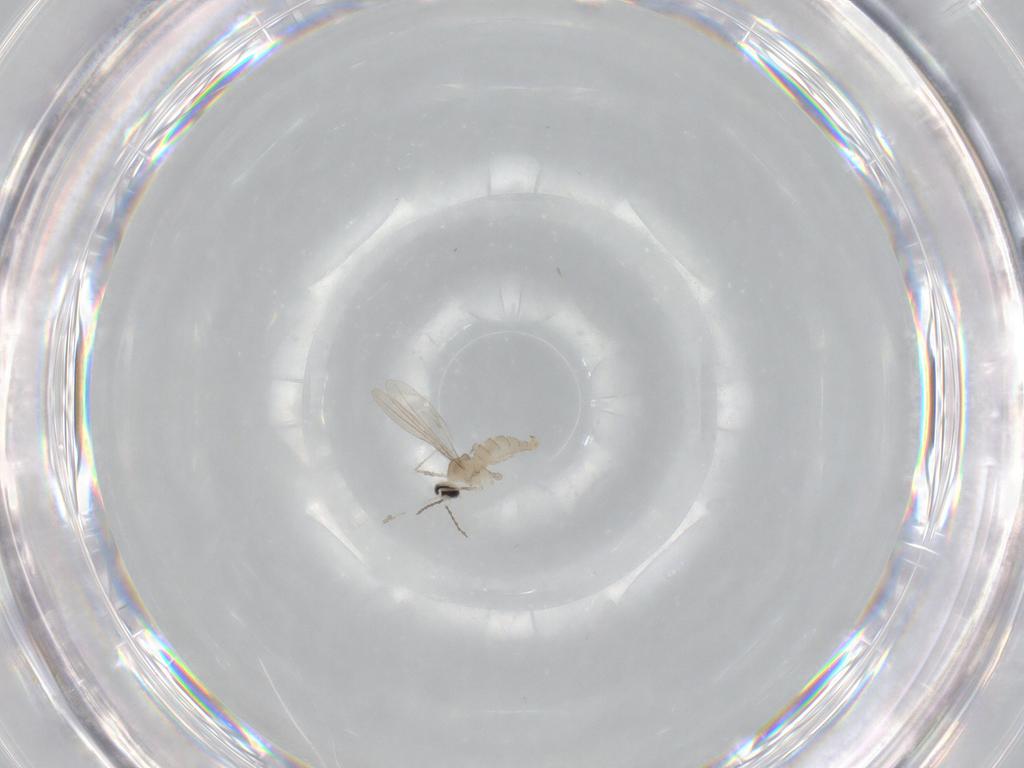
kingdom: Animalia
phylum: Arthropoda
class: Insecta
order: Diptera
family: Cecidomyiidae
